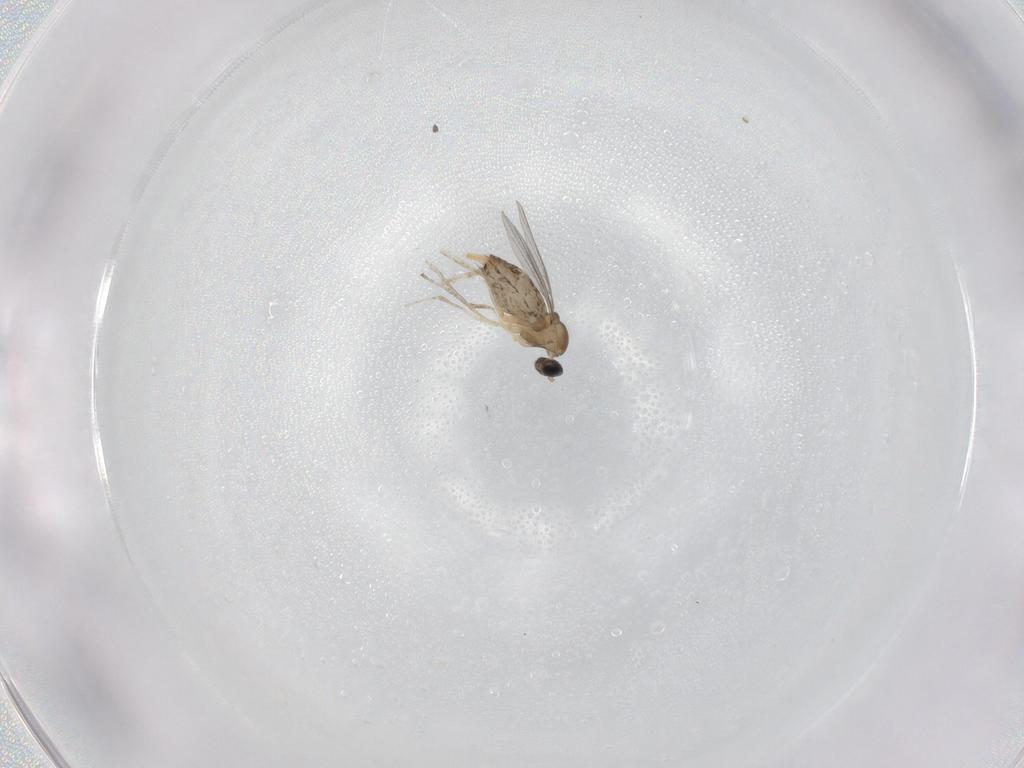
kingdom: Animalia
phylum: Arthropoda
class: Insecta
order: Diptera
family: Cecidomyiidae
